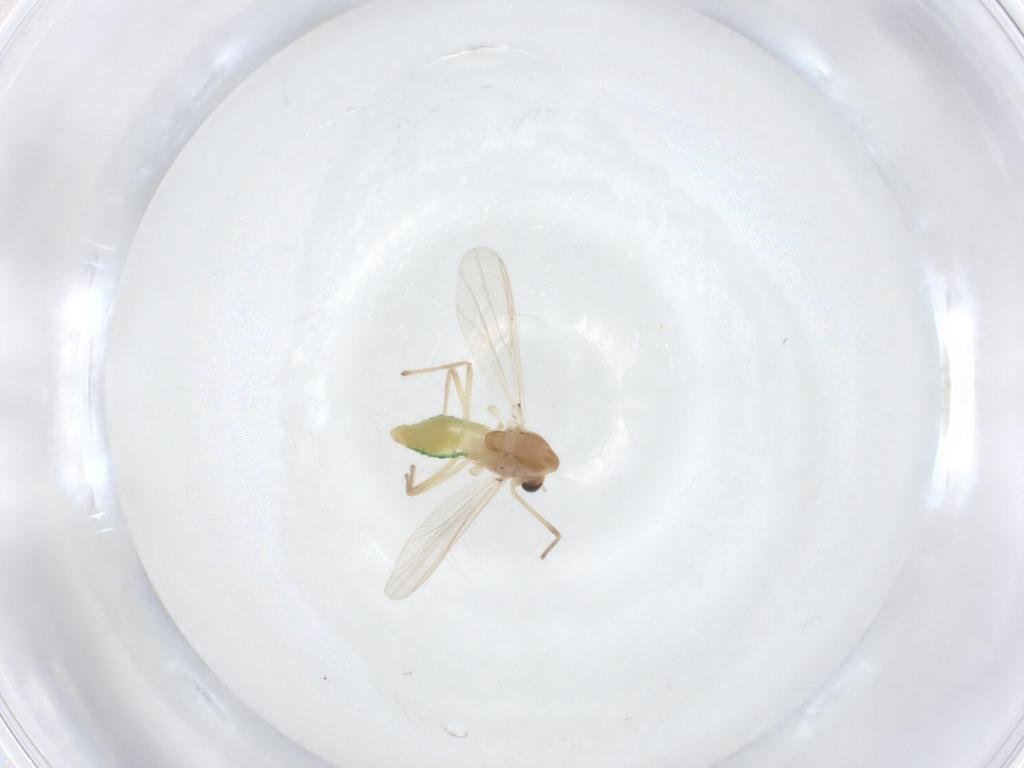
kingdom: Animalia
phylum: Arthropoda
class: Insecta
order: Diptera
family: Chironomidae
